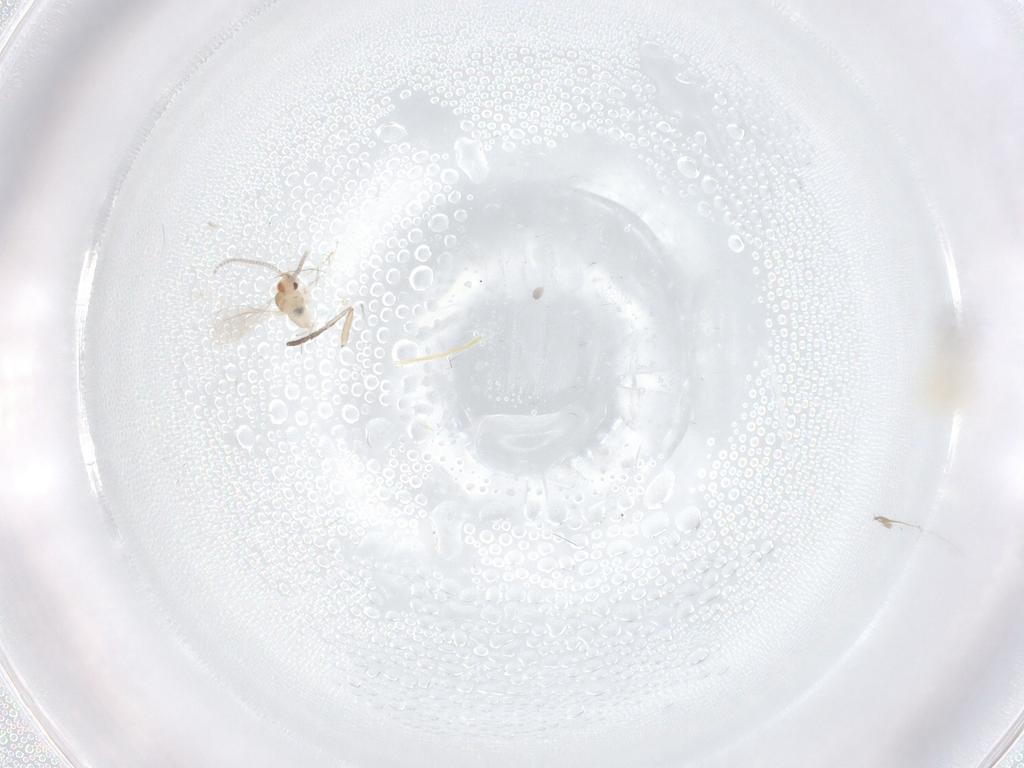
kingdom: Animalia
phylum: Arthropoda
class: Insecta
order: Diptera
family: Cecidomyiidae
